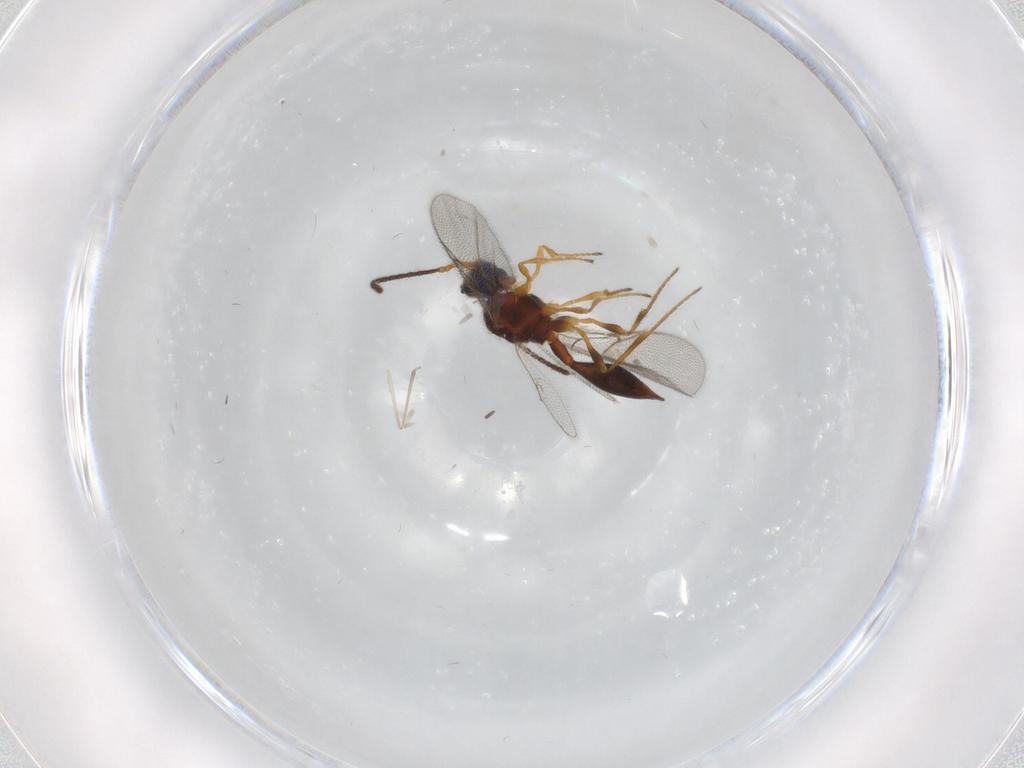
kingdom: Animalia
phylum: Arthropoda
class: Insecta
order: Hymenoptera
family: Diapriidae
